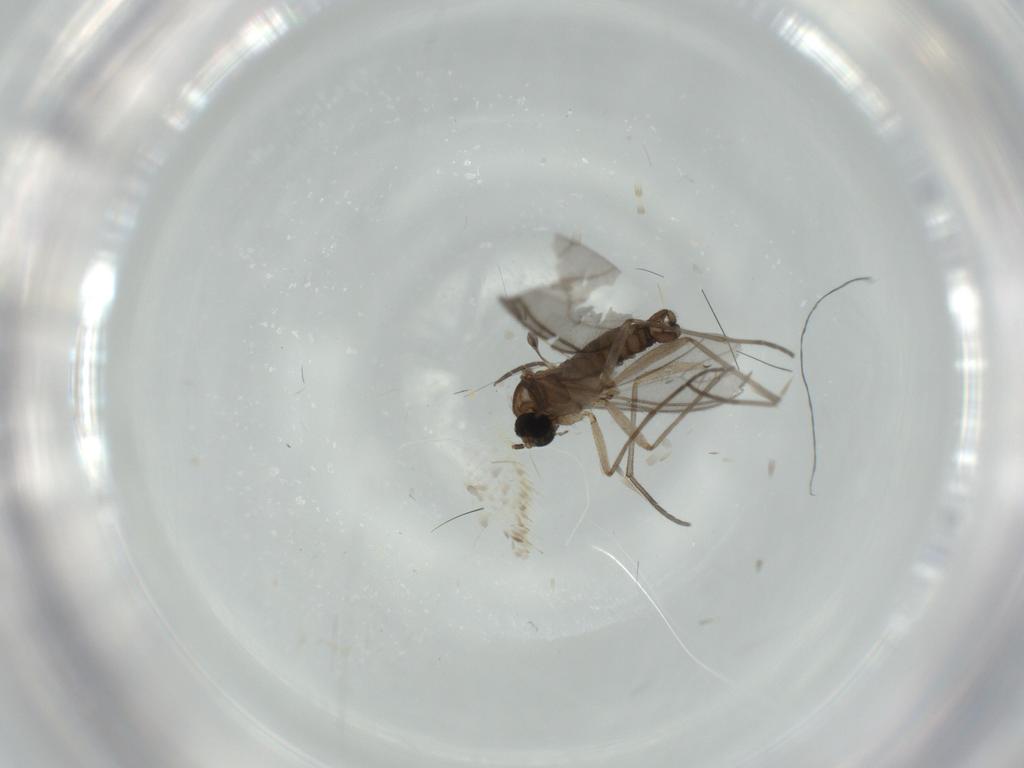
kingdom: Animalia
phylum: Arthropoda
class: Insecta
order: Diptera
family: Sciaridae
